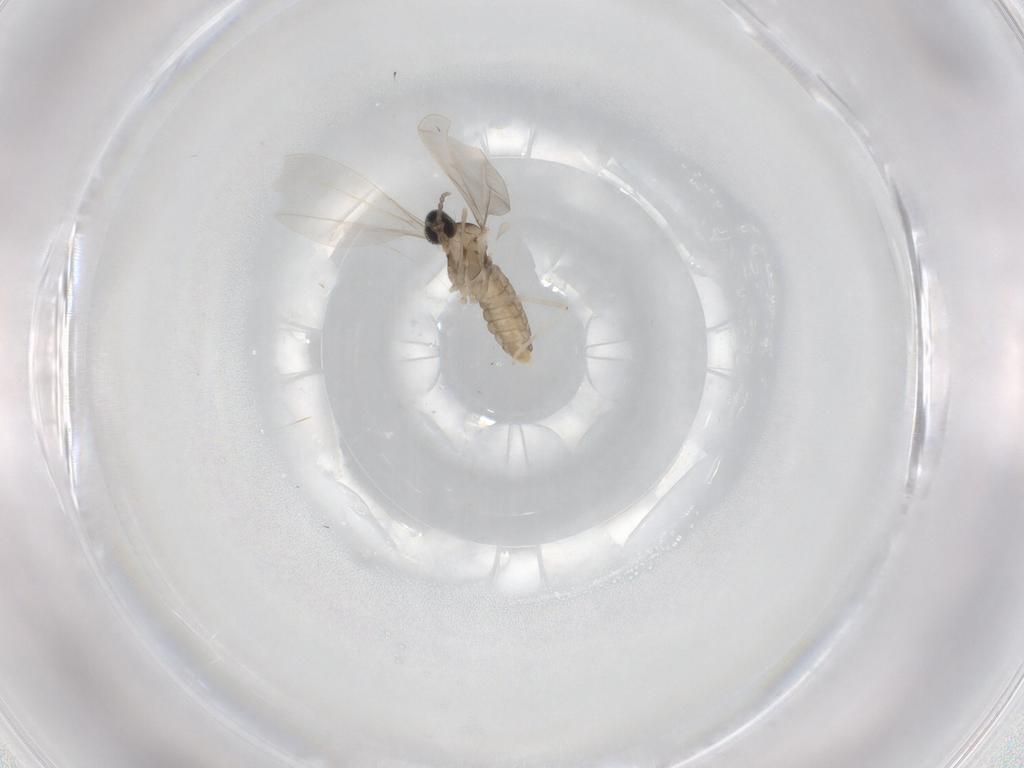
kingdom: Animalia
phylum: Arthropoda
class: Insecta
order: Diptera
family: Cecidomyiidae
